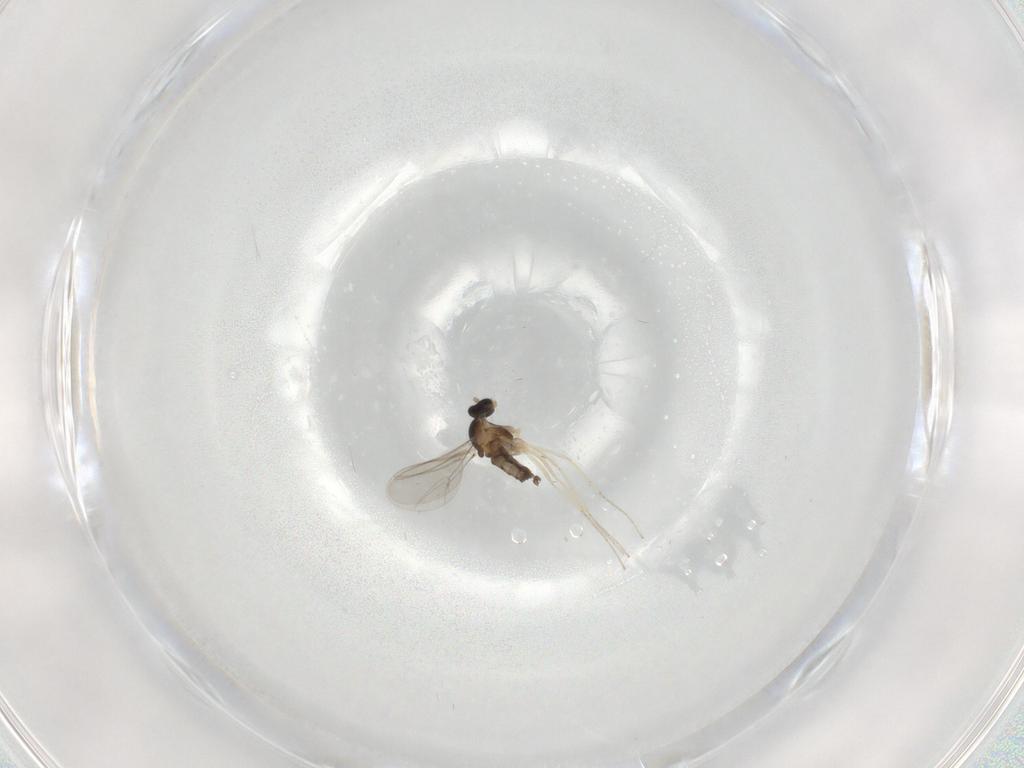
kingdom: Animalia
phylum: Arthropoda
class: Insecta
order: Diptera
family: Cecidomyiidae
